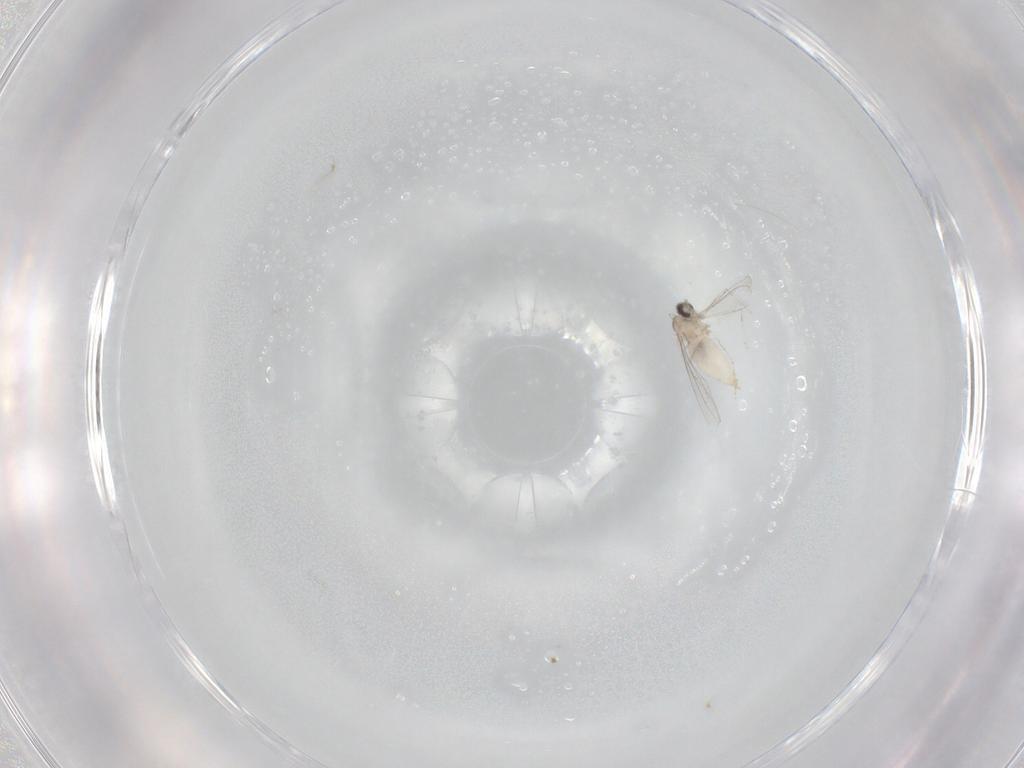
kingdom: Animalia
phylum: Arthropoda
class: Insecta
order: Diptera
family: Cecidomyiidae
